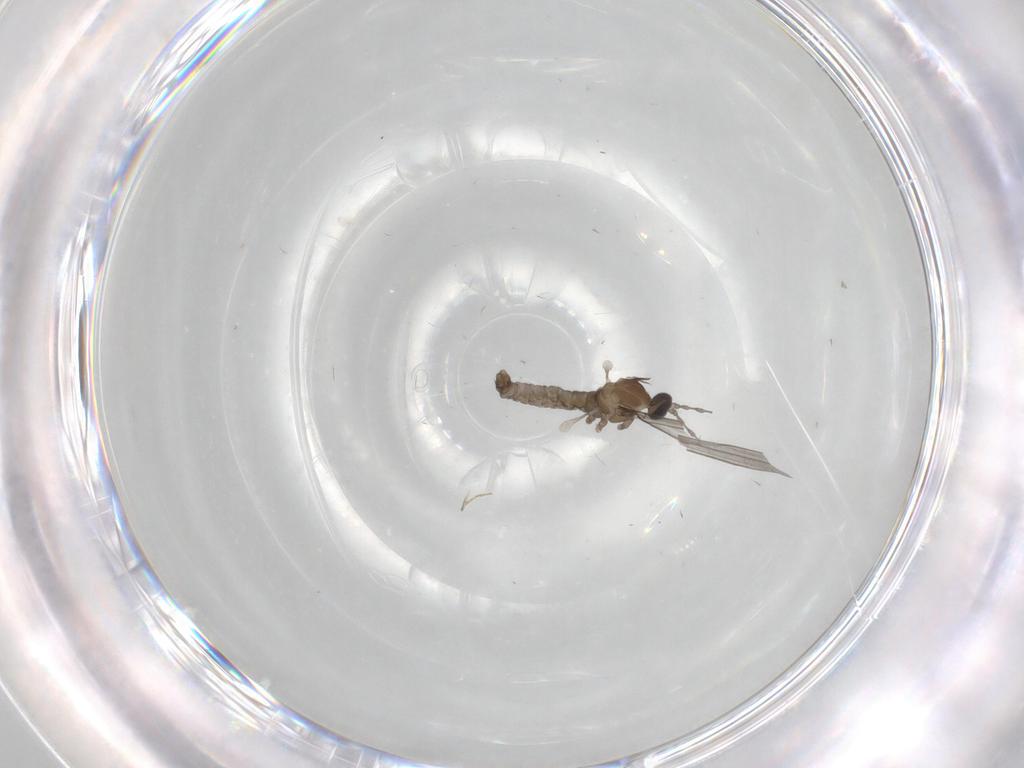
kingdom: Animalia
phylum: Arthropoda
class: Insecta
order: Diptera
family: Cecidomyiidae
